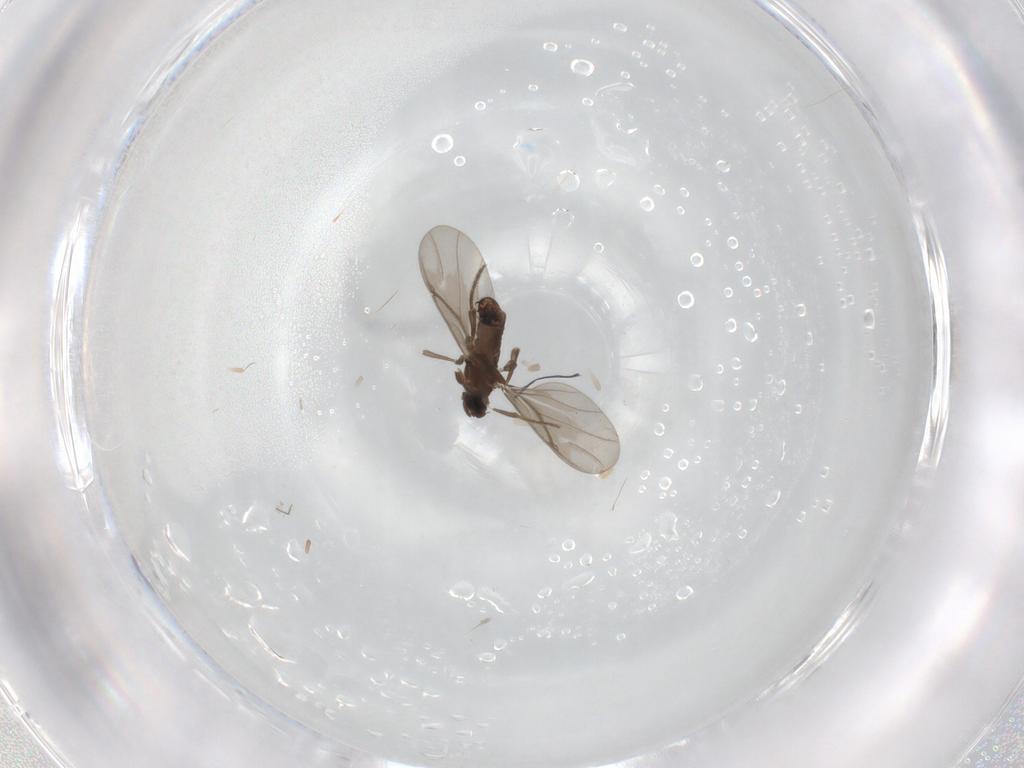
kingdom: Animalia
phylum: Arthropoda
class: Insecta
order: Diptera
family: Phoridae
